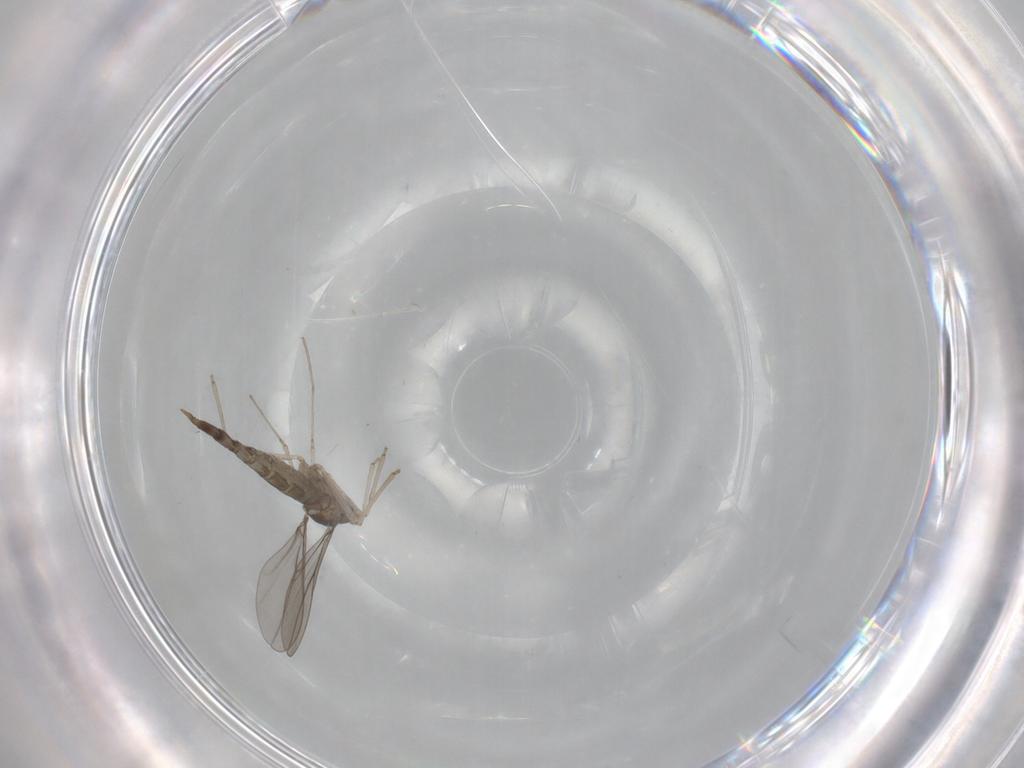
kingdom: Animalia
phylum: Arthropoda
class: Insecta
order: Diptera
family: Cecidomyiidae
